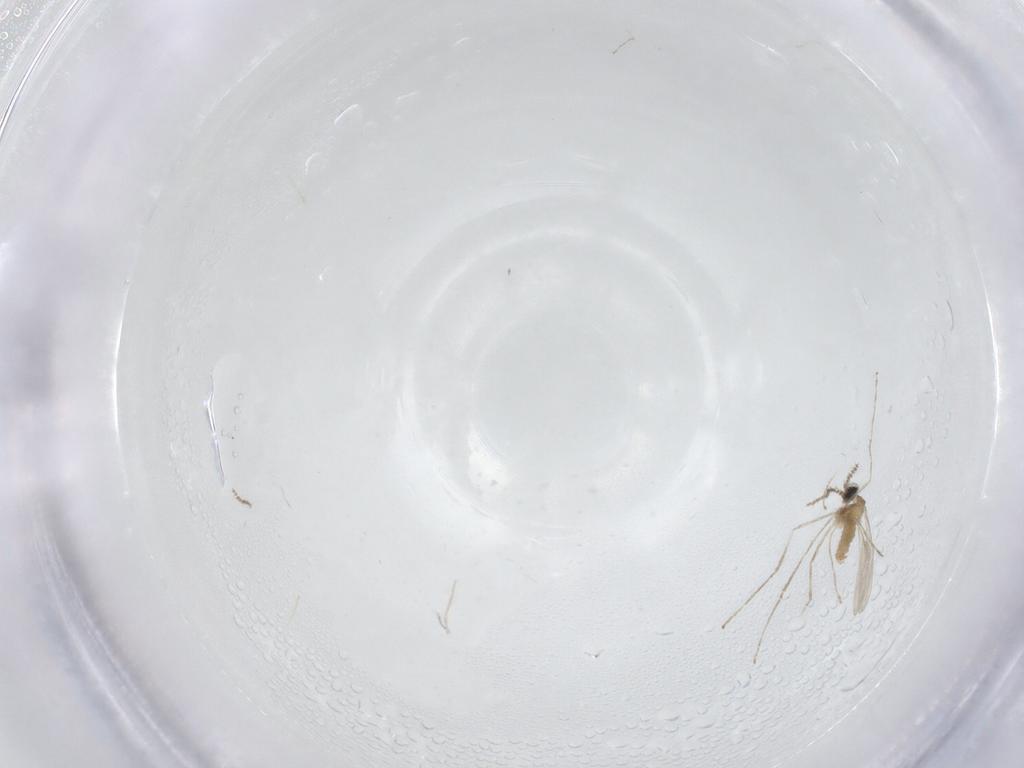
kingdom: Animalia
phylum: Arthropoda
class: Insecta
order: Diptera
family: Cecidomyiidae
